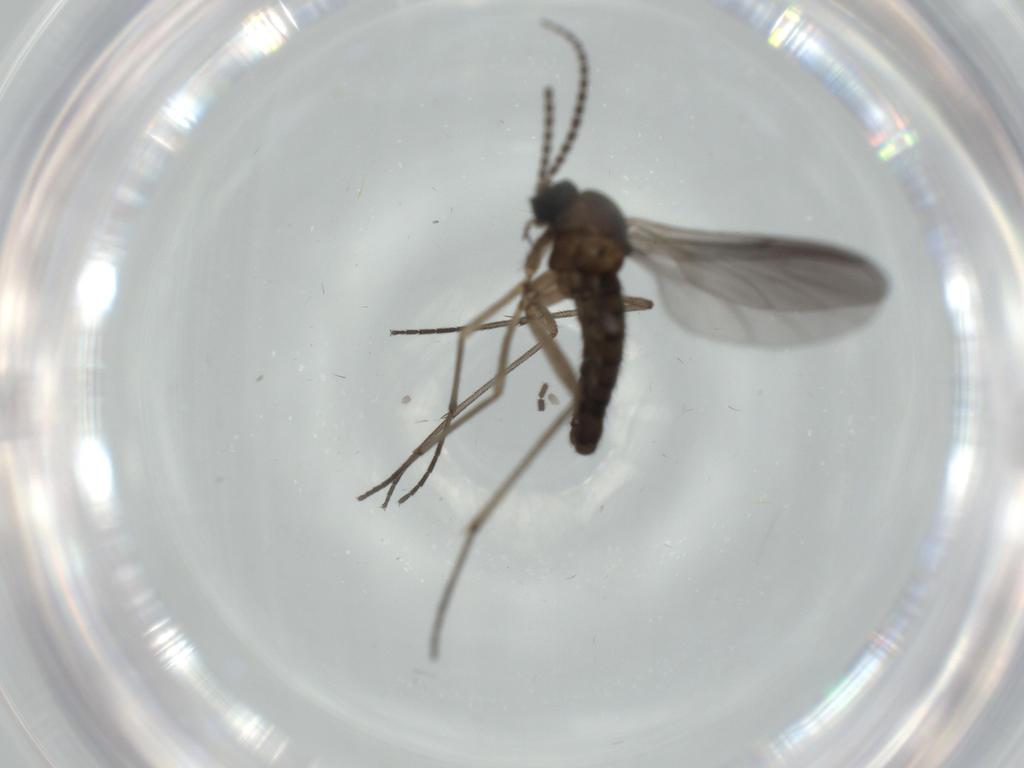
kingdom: Animalia
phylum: Arthropoda
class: Insecta
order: Diptera
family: Sciaridae
